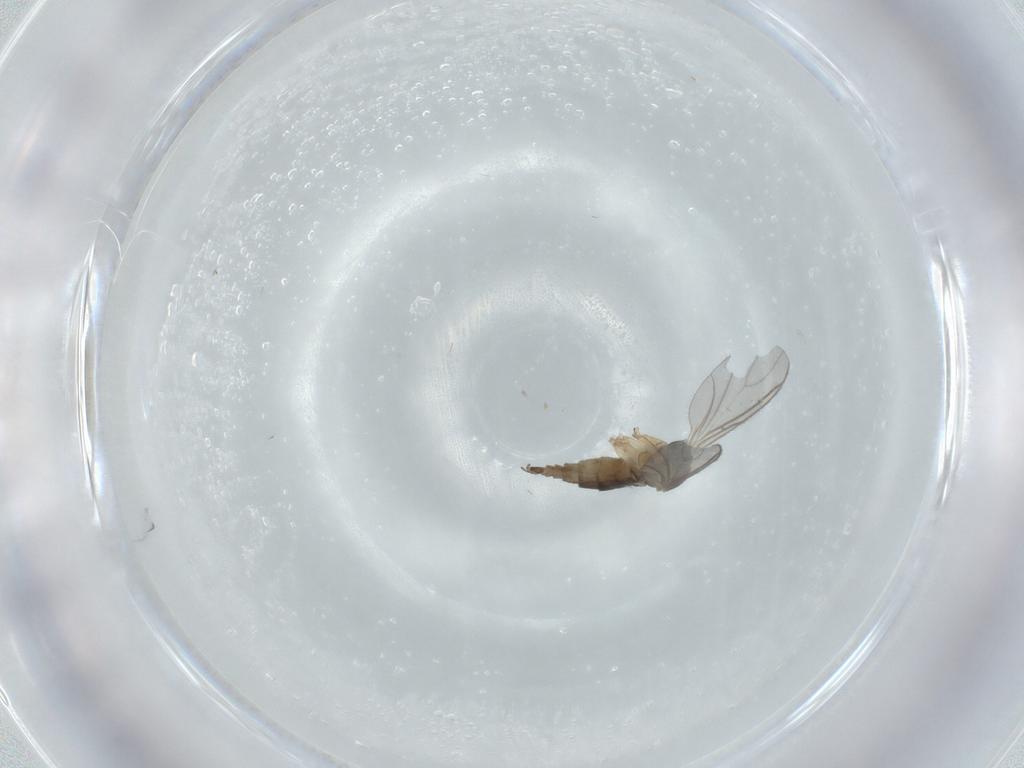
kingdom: Animalia
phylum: Arthropoda
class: Insecta
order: Diptera
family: Sciaridae
